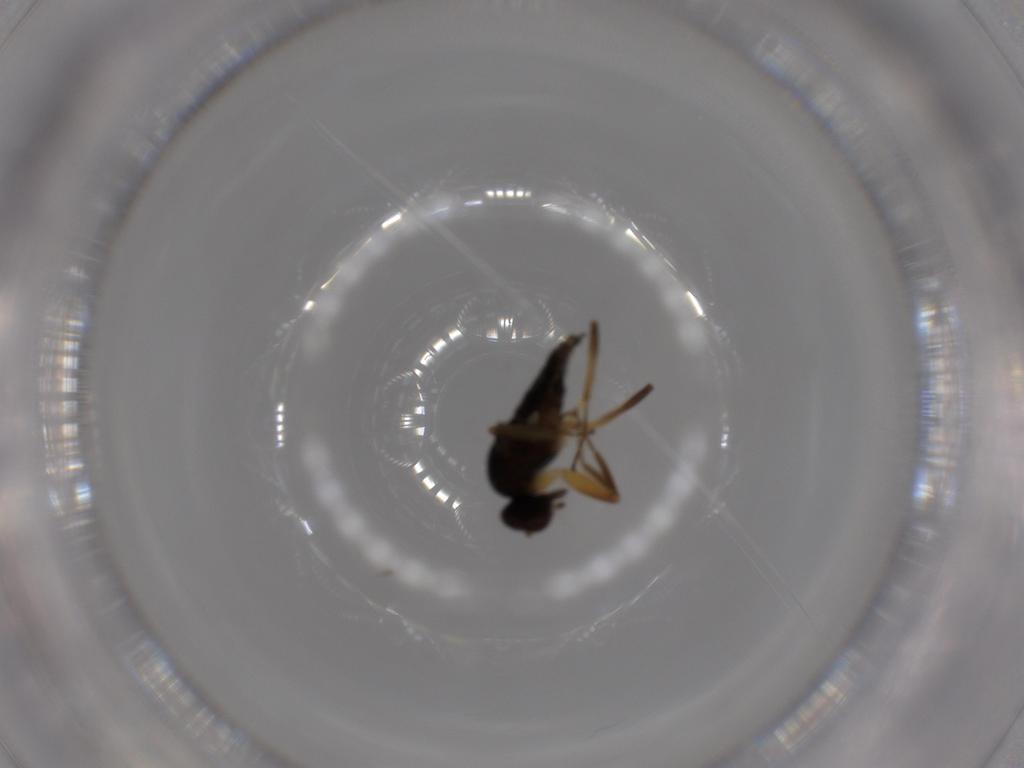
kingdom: Animalia
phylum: Arthropoda
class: Insecta
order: Diptera
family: Hybotidae
